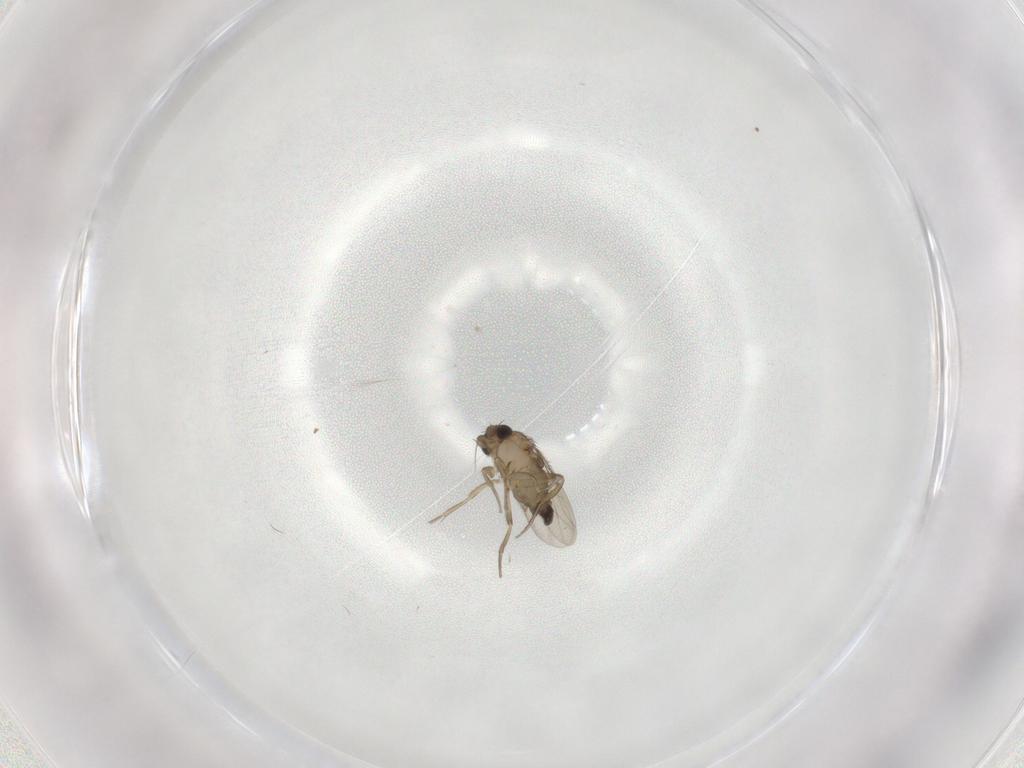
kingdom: Animalia
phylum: Arthropoda
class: Insecta
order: Diptera
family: Phoridae
